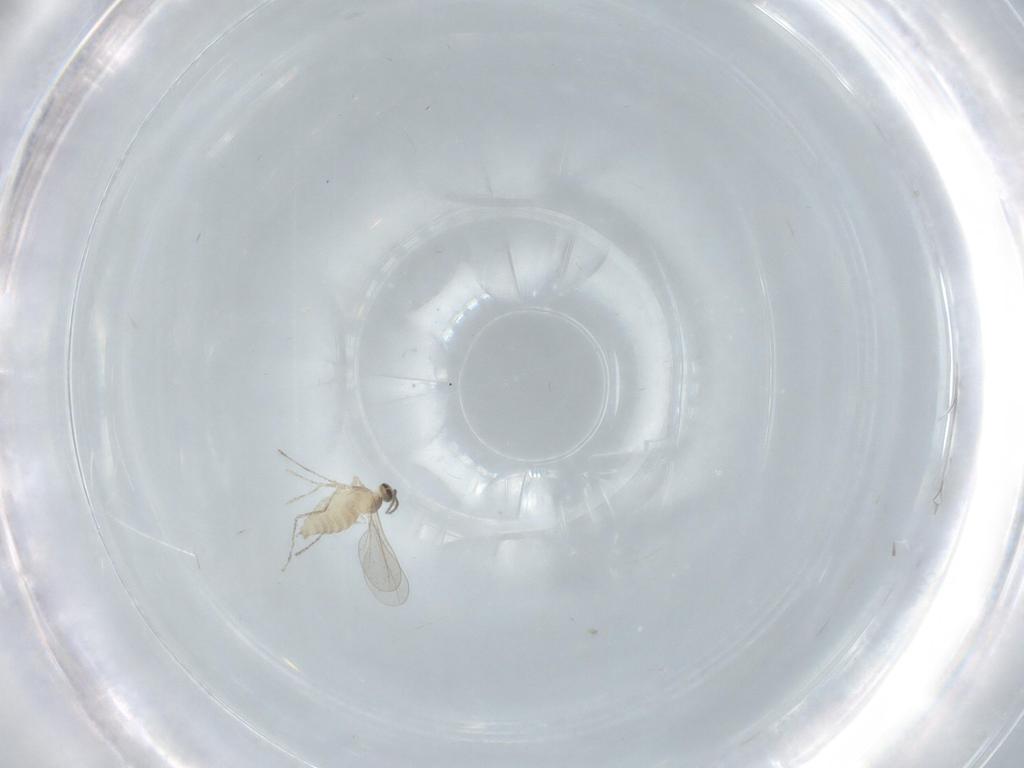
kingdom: Animalia
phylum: Arthropoda
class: Insecta
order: Diptera
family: Cecidomyiidae
